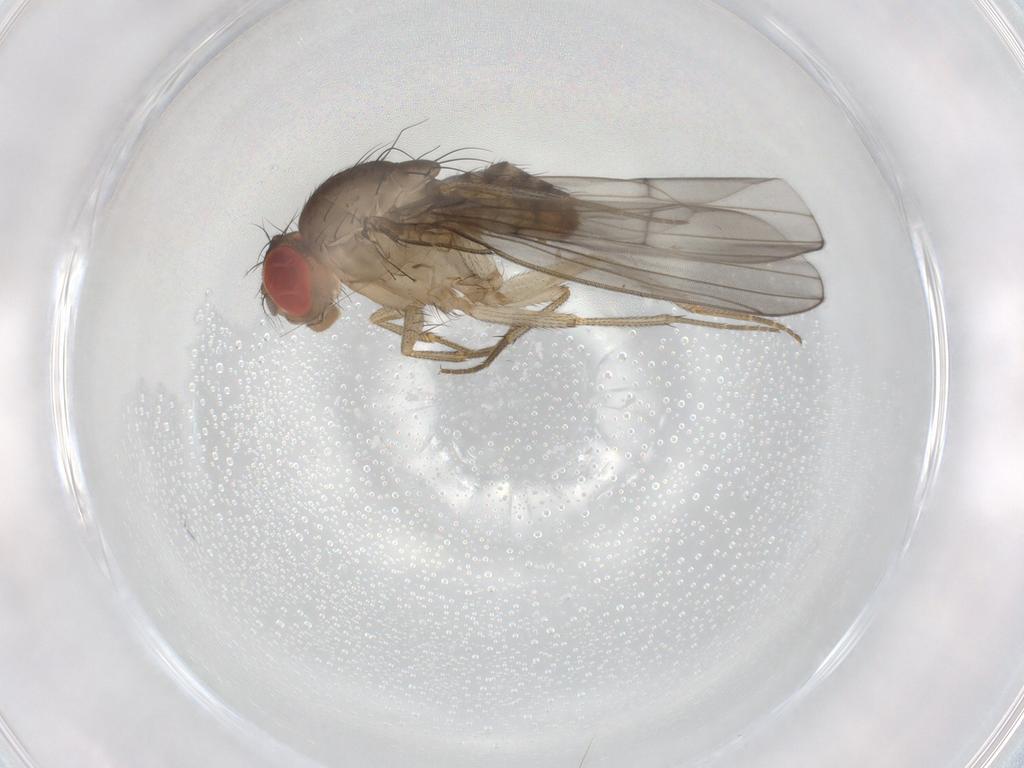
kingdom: Animalia
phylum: Arthropoda
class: Insecta
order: Diptera
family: Drosophilidae
